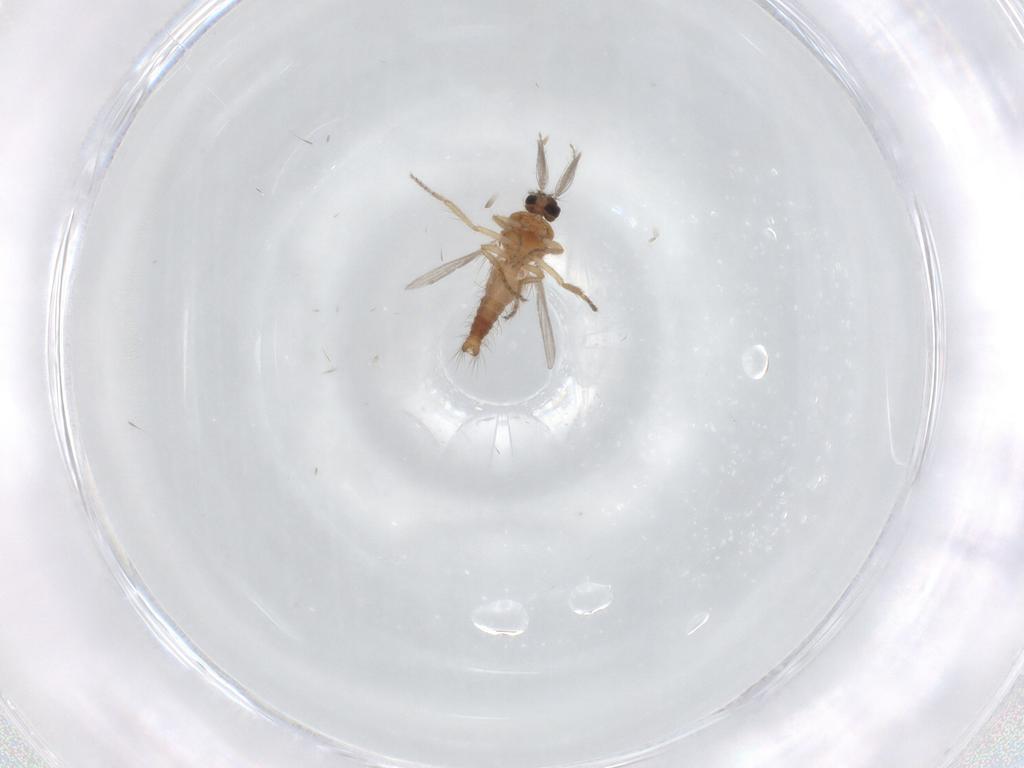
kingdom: Animalia
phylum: Arthropoda
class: Insecta
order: Diptera
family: Ceratopogonidae
